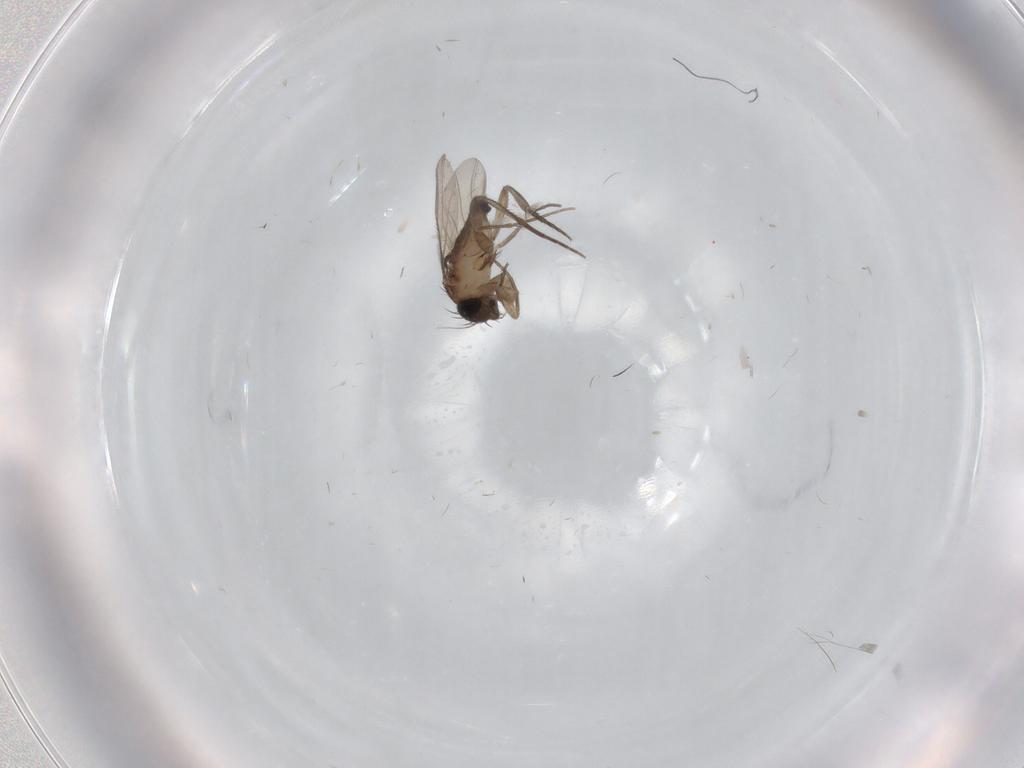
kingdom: Animalia
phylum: Arthropoda
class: Insecta
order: Diptera
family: Phoridae
